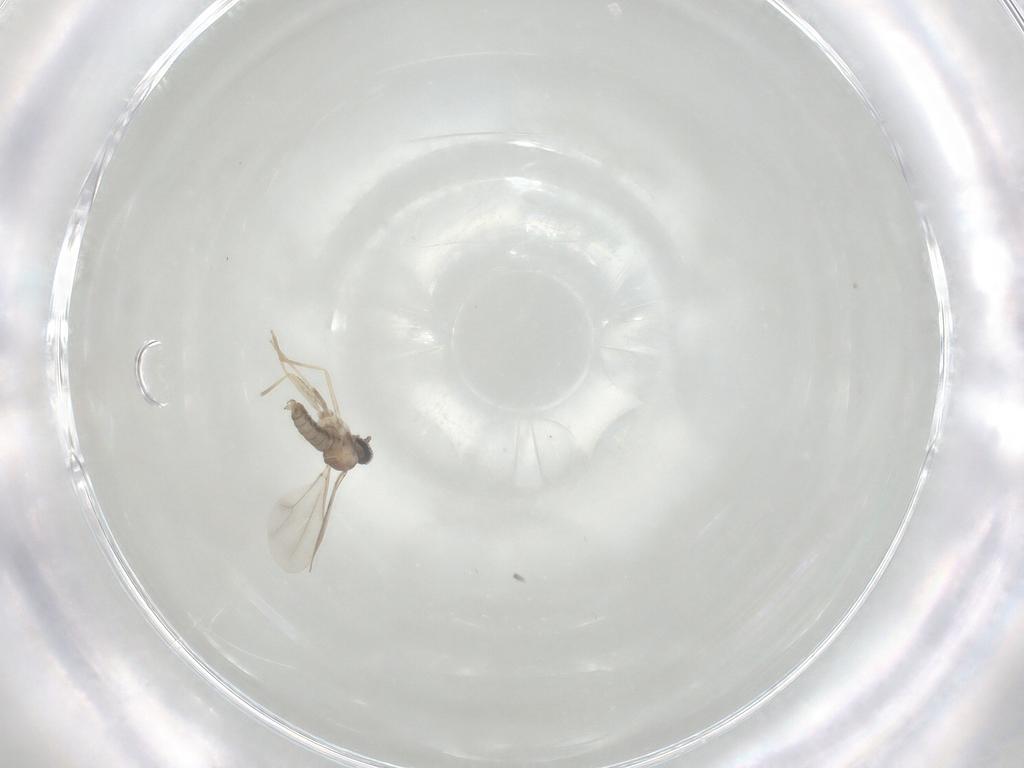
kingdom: Animalia
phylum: Arthropoda
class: Insecta
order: Diptera
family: Cecidomyiidae
